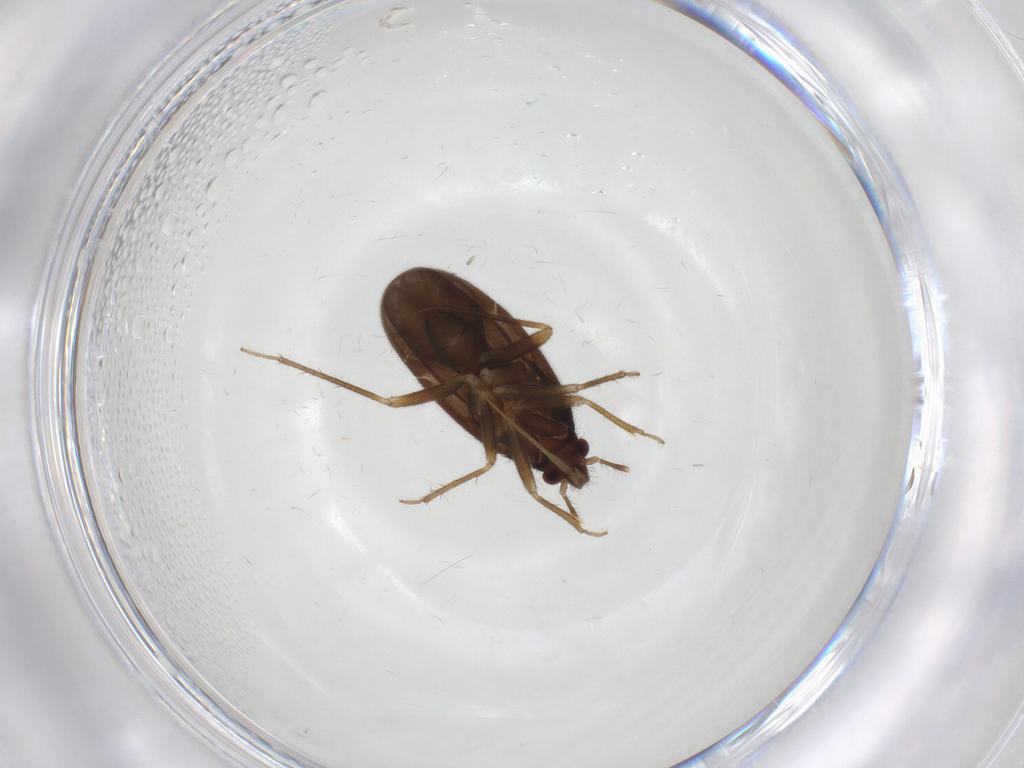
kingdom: Animalia
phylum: Arthropoda
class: Insecta
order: Hemiptera
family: Ceratocombidae
